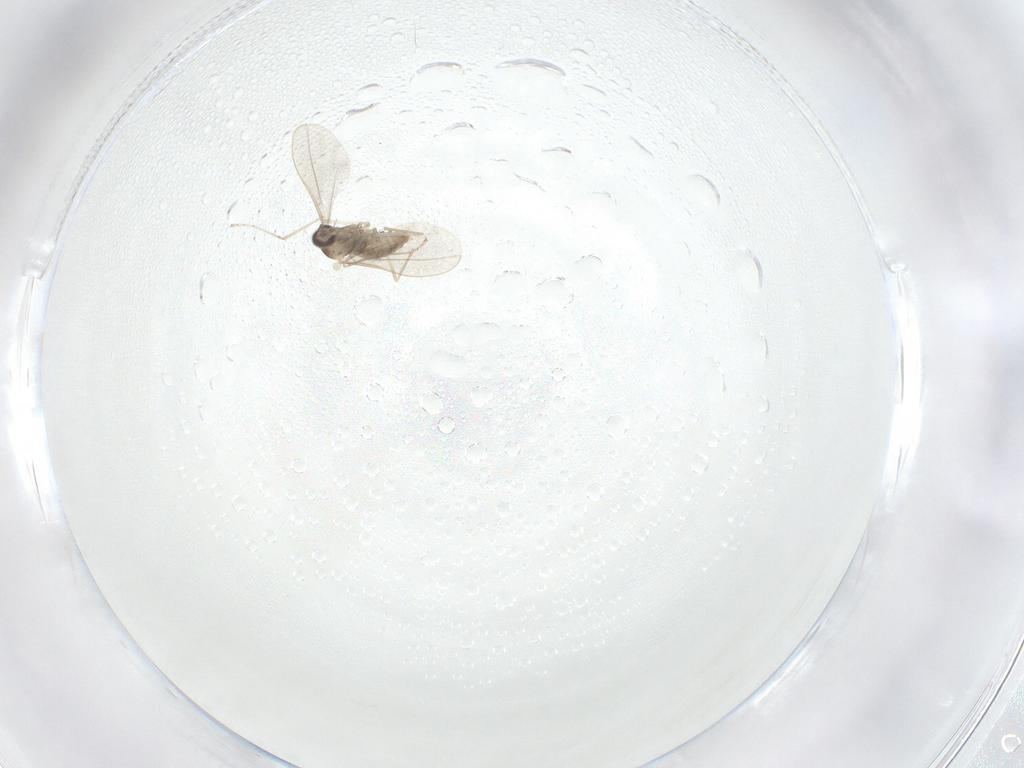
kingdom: Animalia
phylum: Arthropoda
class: Insecta
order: Diptera
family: Cecidomyiidae
